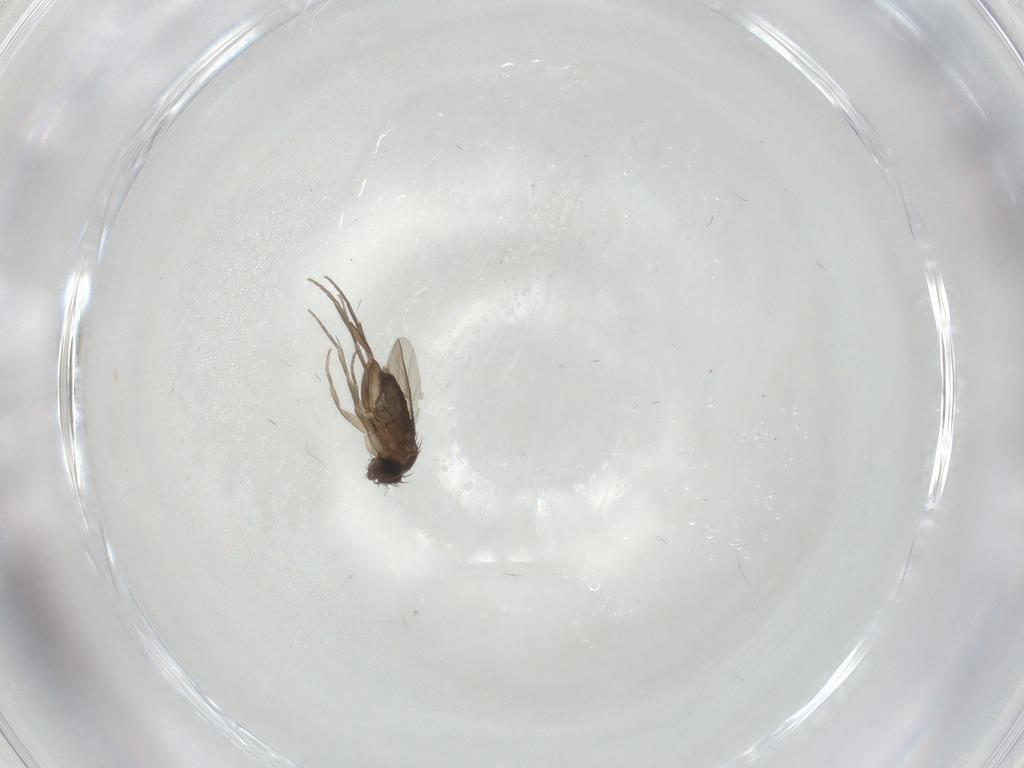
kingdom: Animalia
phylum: Arthropoda
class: Insecta
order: Diptera
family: Phoridae
